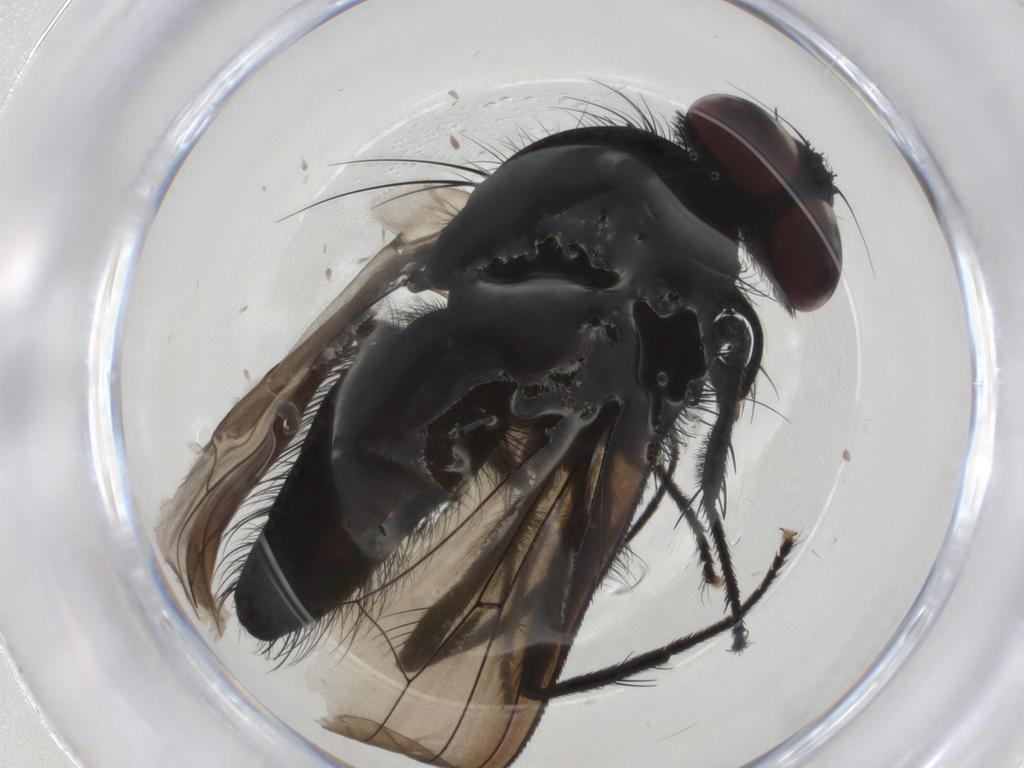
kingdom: Animalia
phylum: Arthropoda
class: Insecta
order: Diptera
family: Fanniidae
